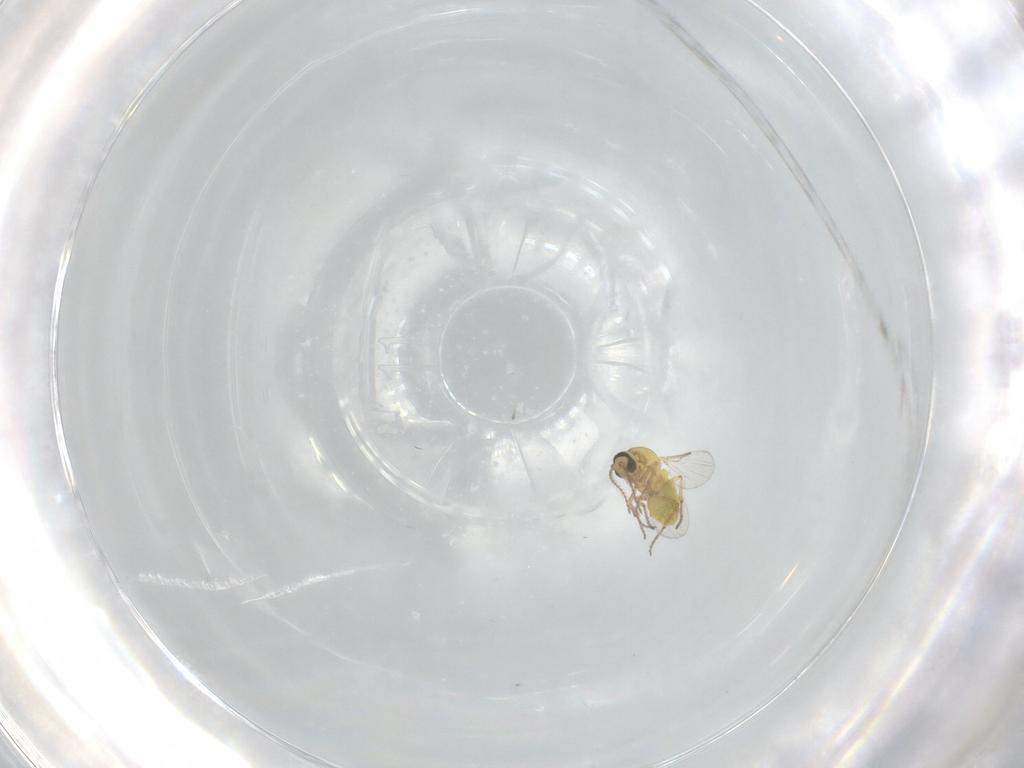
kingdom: Animalia
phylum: Arthropoda
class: Insecta
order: Diptera
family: Ceratopogonidae
